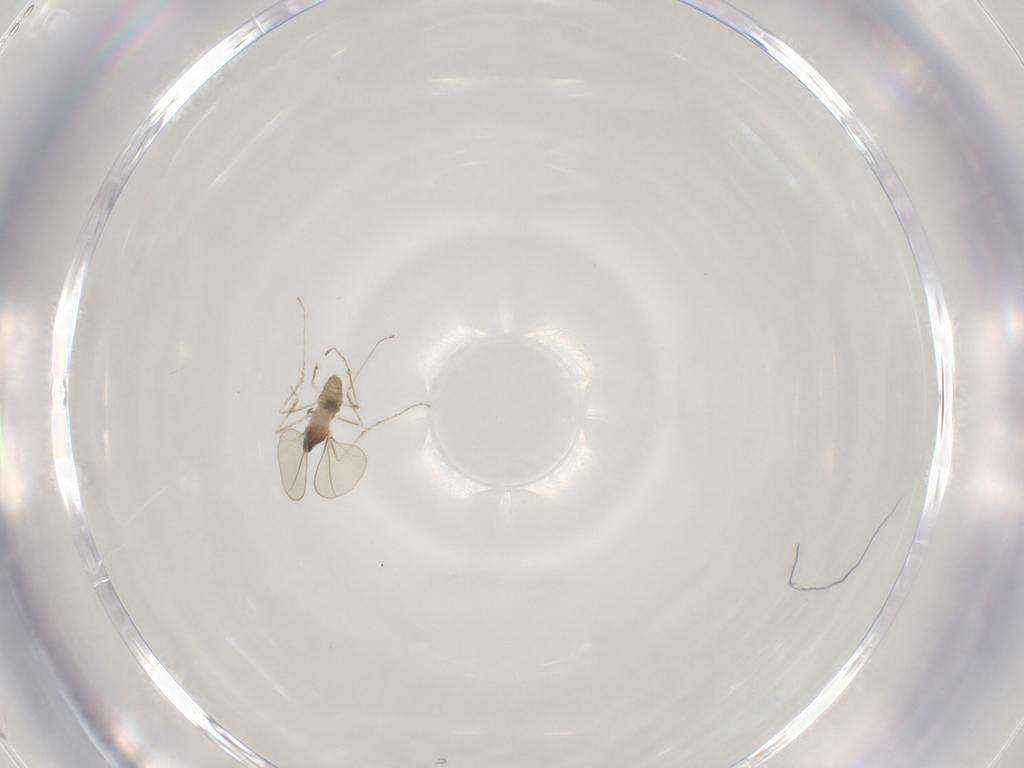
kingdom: Animalia
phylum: Arthropoda
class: Insecta
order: Diptera
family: Cecidomyiidae
